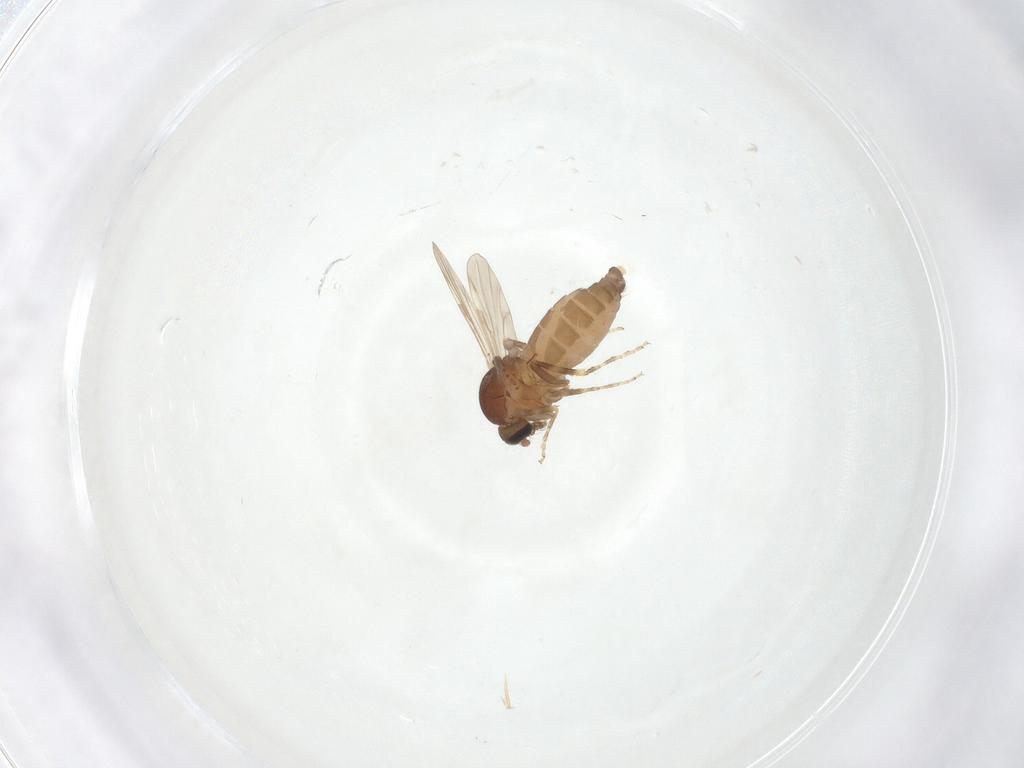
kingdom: Animalia
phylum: Arthropoda
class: Insecta
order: Diptera
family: Ceratopogonidae
